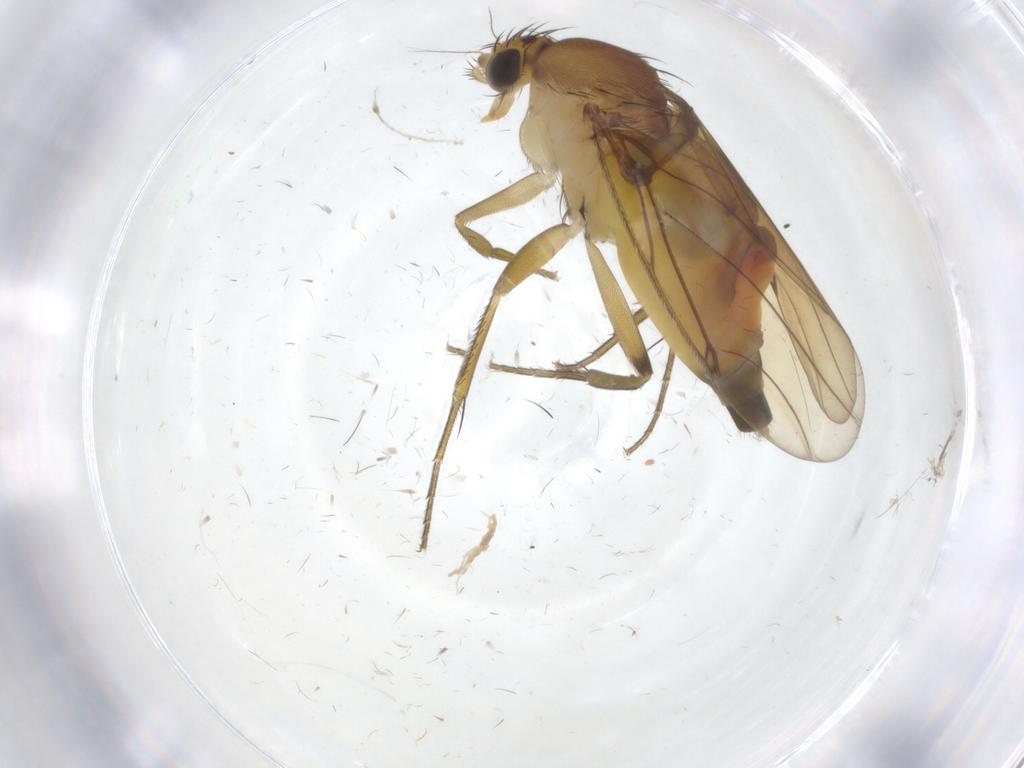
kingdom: Animalia
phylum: Arthropoda
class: Insecta
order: Diptera
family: Phoridae
